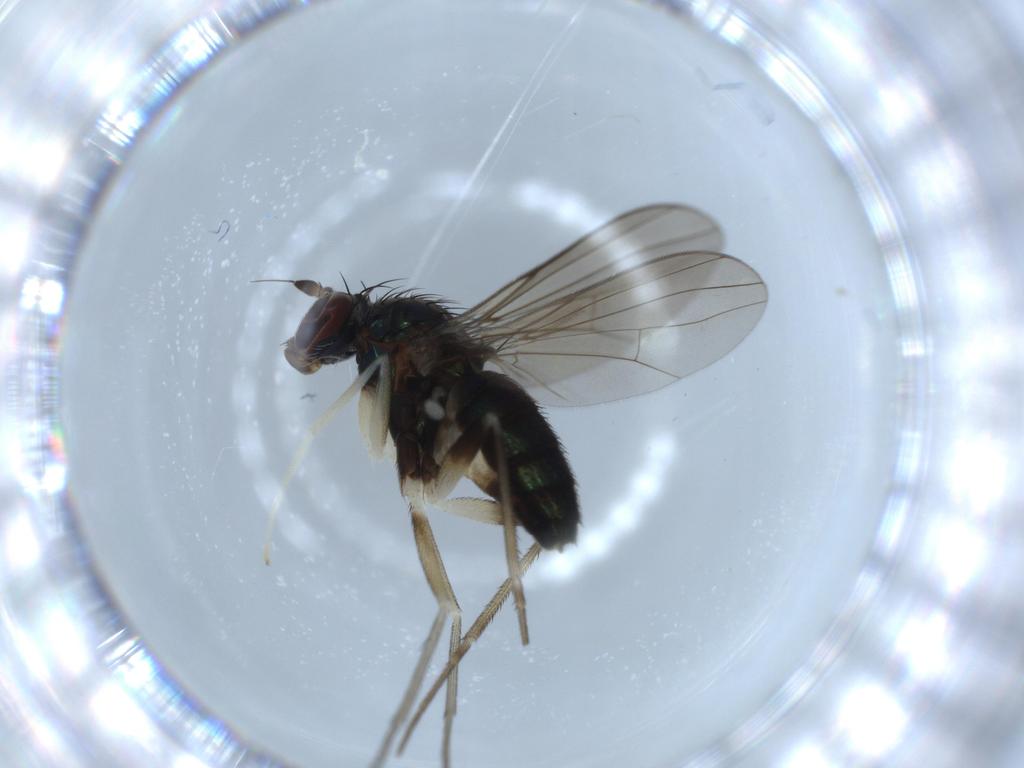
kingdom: Animalia
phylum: Arthropoda
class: Insecta
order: Diptera
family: Dolichopodidae
